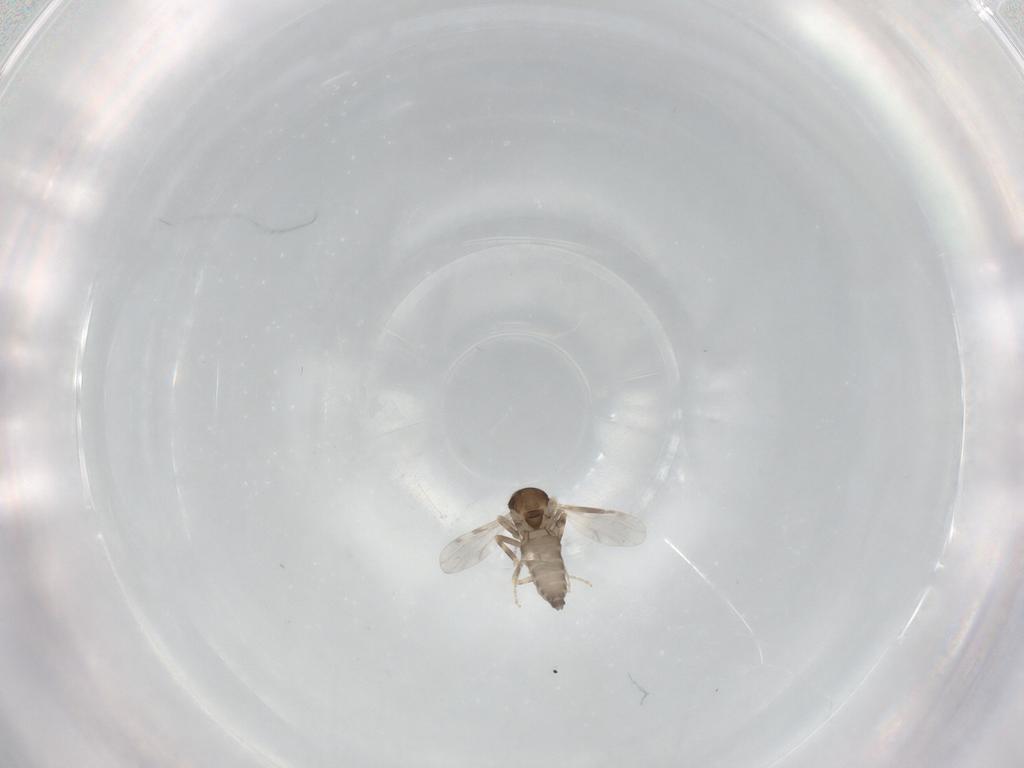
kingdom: Animalia
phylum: Arthropoda
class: Insecta
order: Diptera
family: Ceratopogonidae
